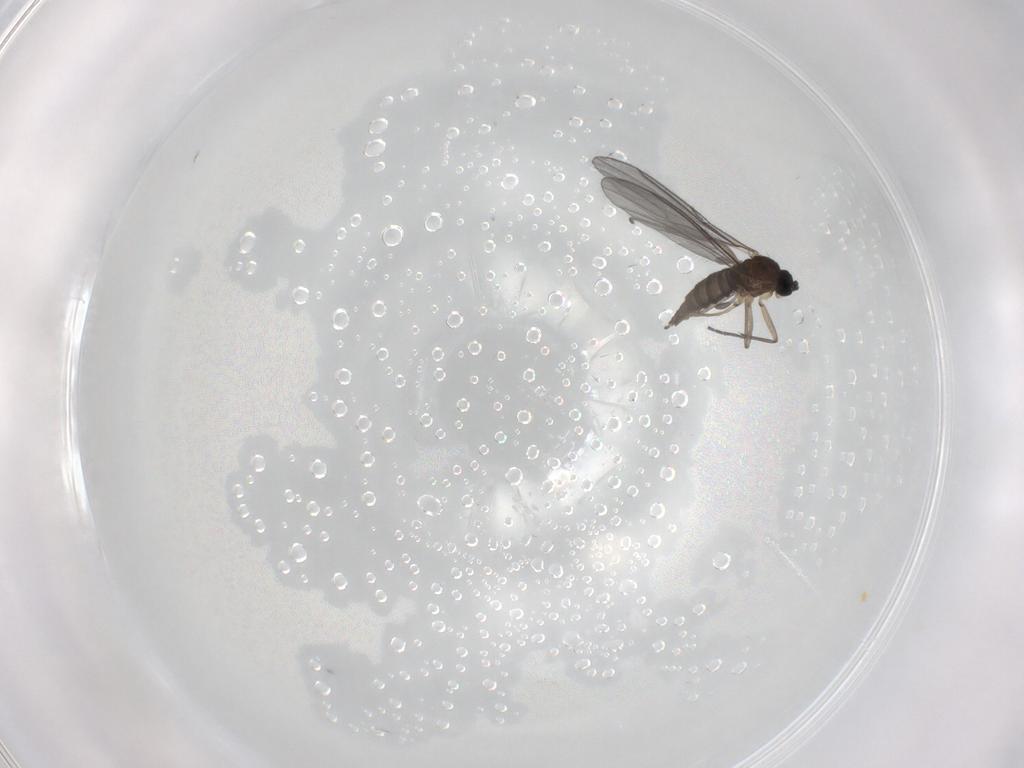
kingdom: Animalia
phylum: Arthropoda
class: Insecta
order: Diptera
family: Sciaridae
